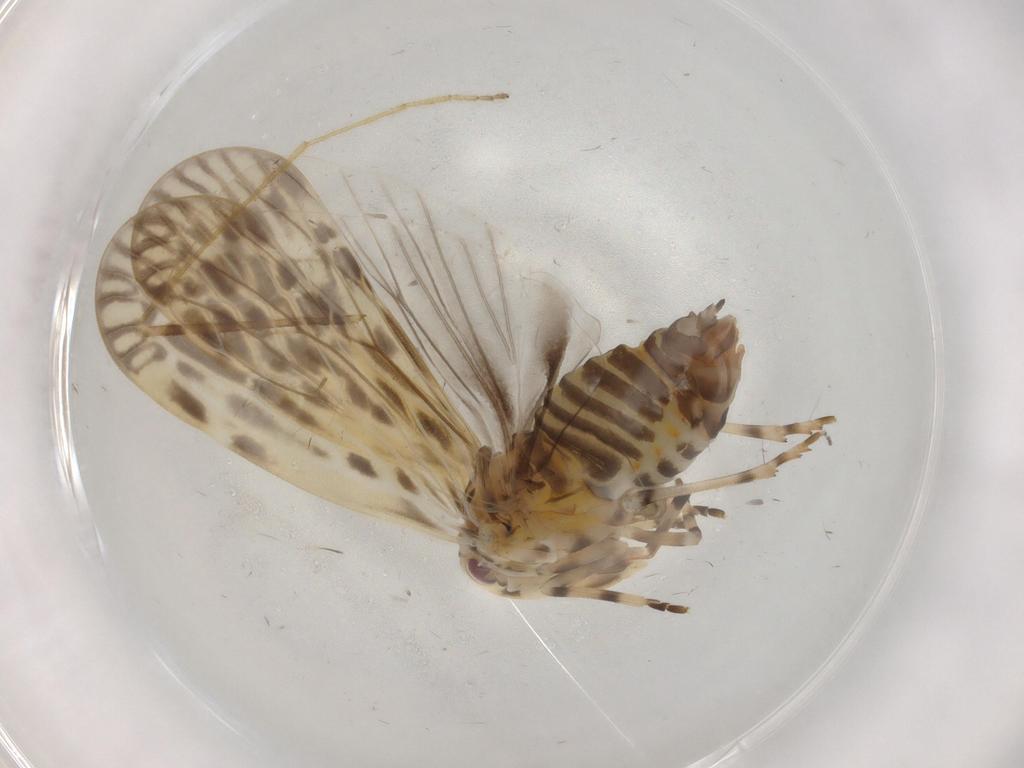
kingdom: Animalia
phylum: Arthropoda
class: Insecta
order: Hemiptera
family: Derbidae
